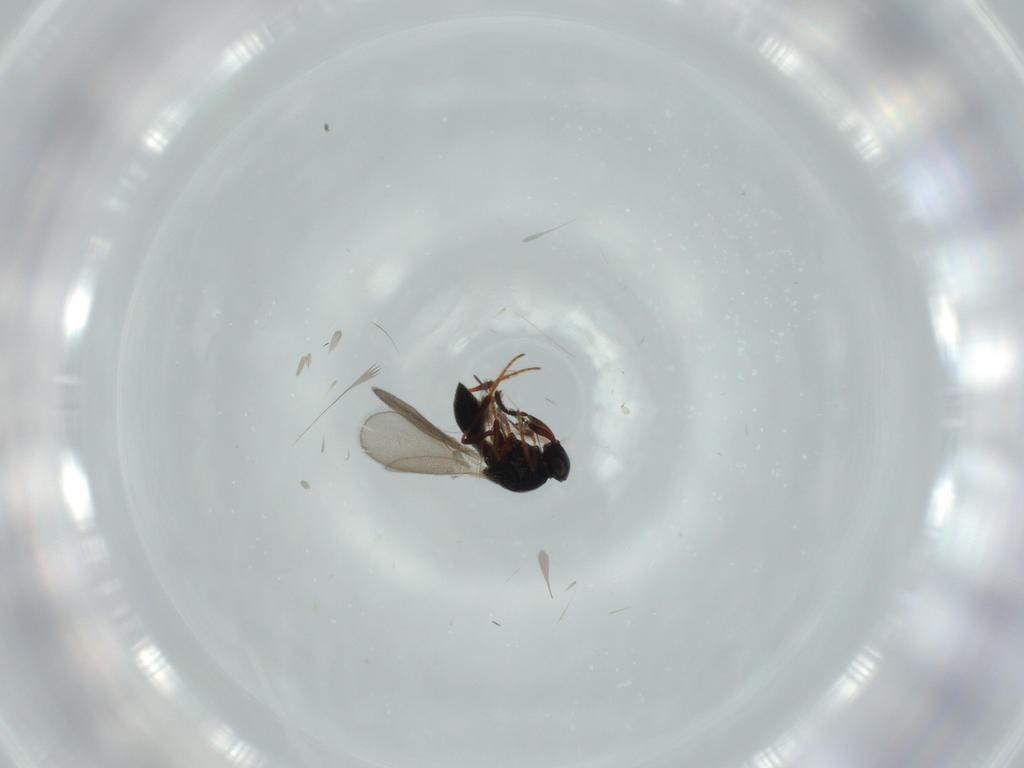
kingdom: Animalia
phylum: Arthropoda
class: Insecta
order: Hymenoptera
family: Platygastridae
